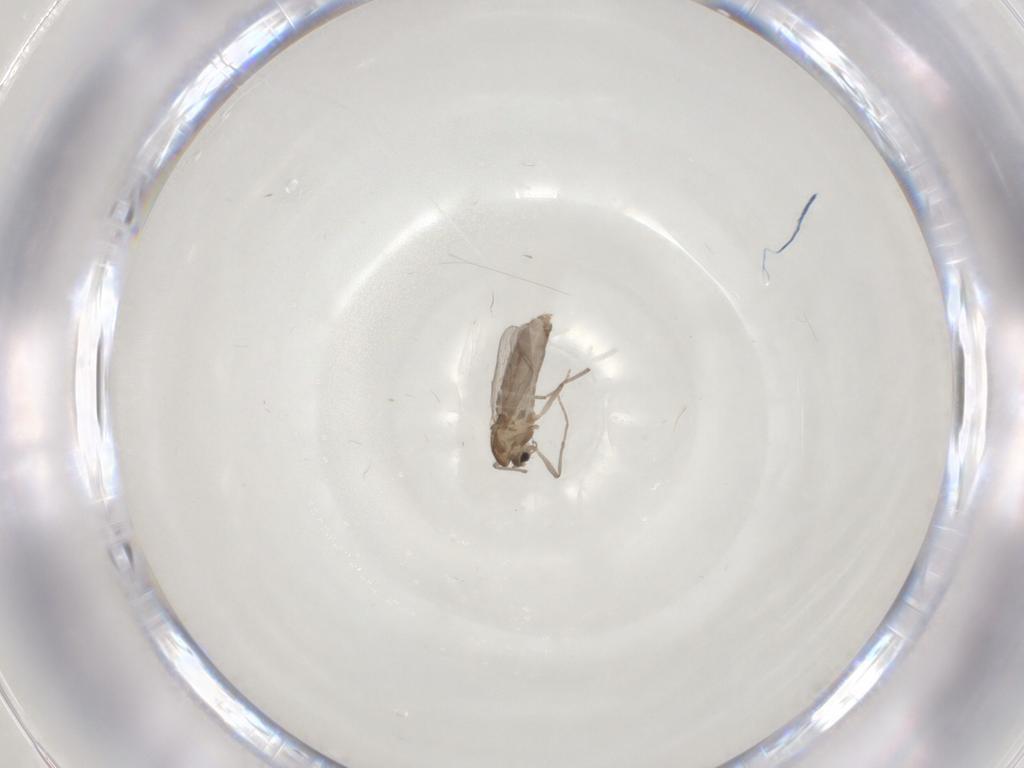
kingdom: Animalia
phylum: Arthropoda
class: Insecta
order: Diptera
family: Chironomidae
